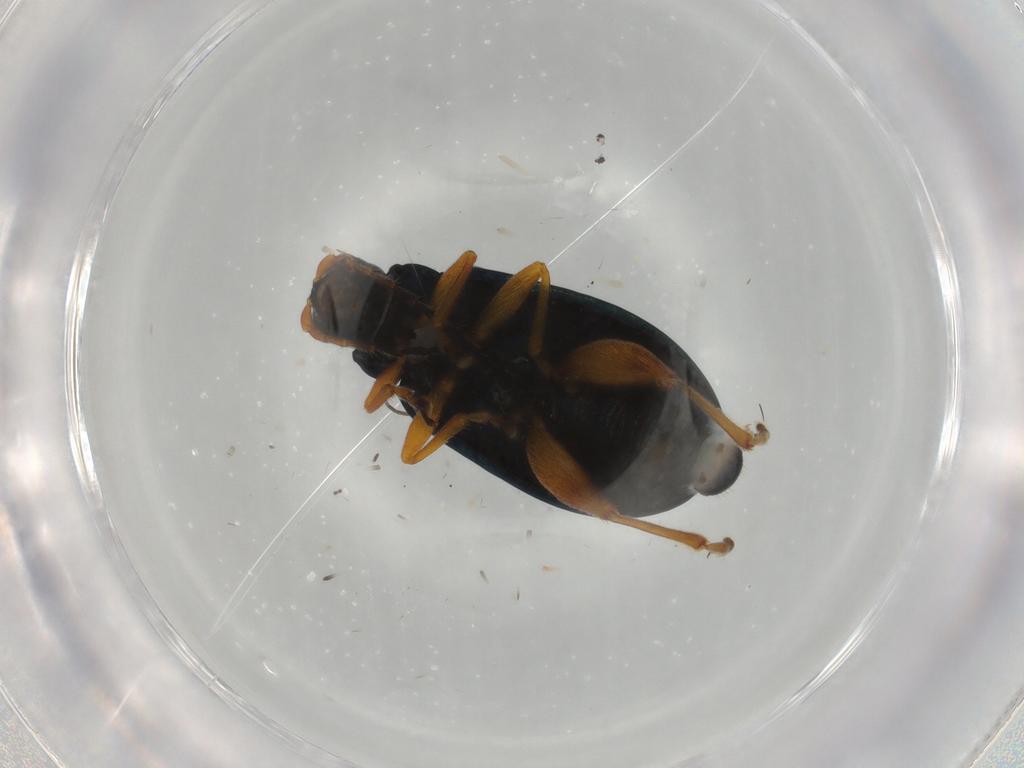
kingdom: Animalia
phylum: Arthropoda
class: Insecta
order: Coleoptera
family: Chrysomelidae
